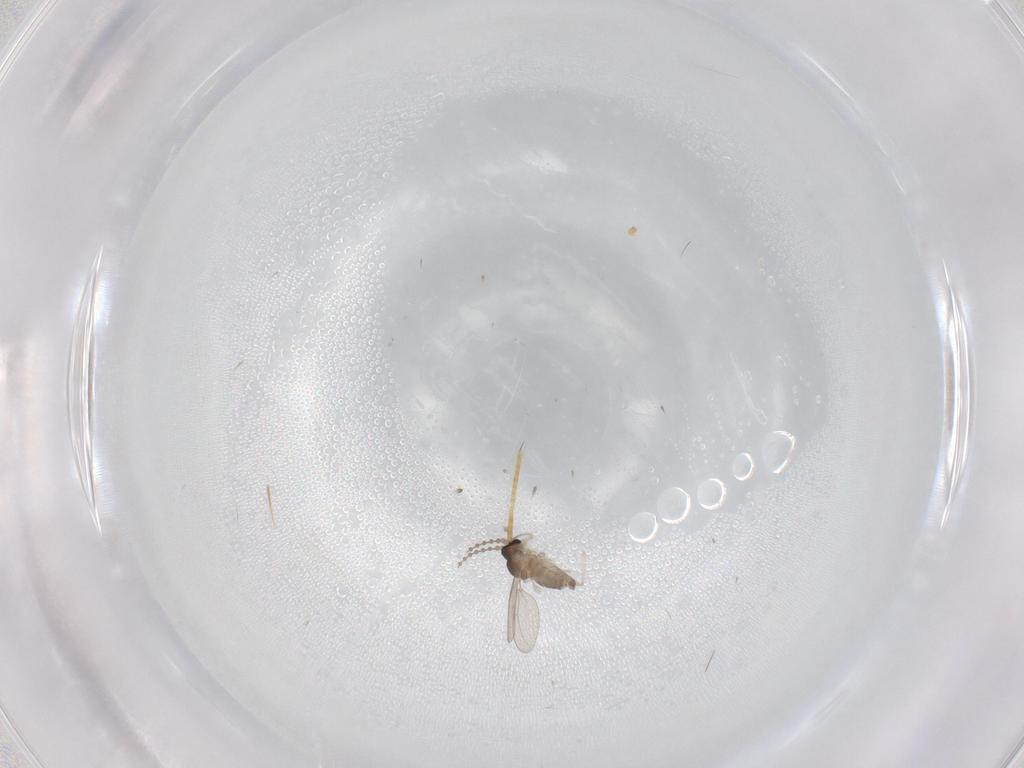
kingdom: Animalia
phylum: Arthropoda
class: Insecta
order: Diptera
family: Cecidomyiidae
